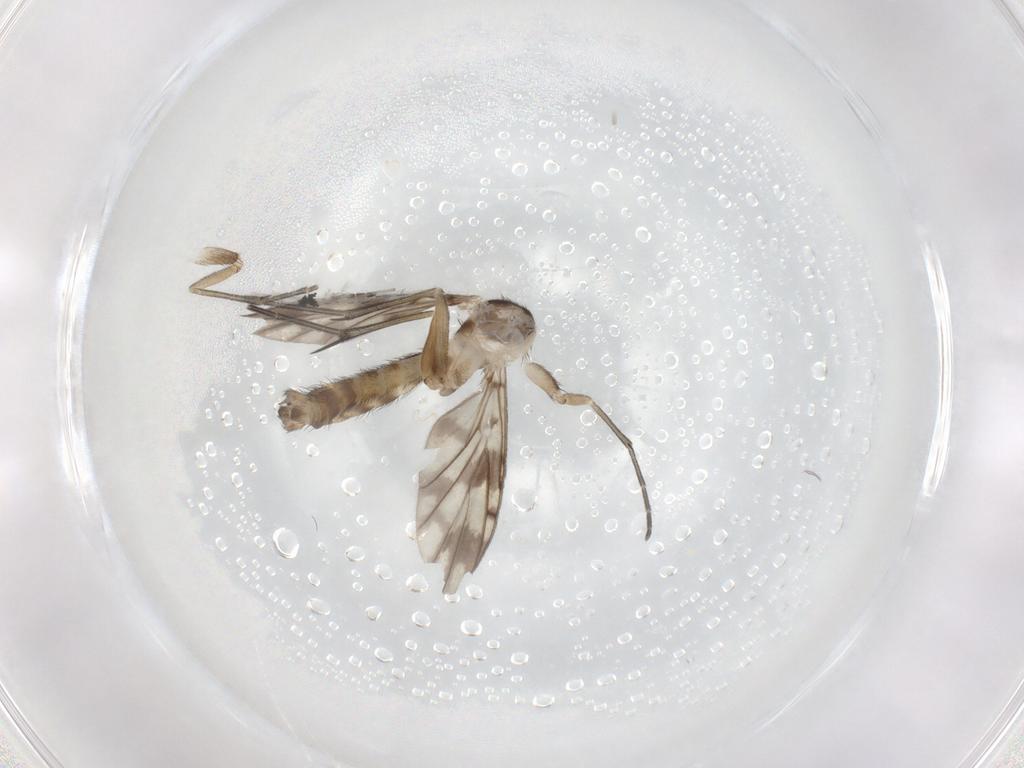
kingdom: Animalia
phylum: Arthropoda
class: Insecta
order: Diptera
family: Keroplatidae
